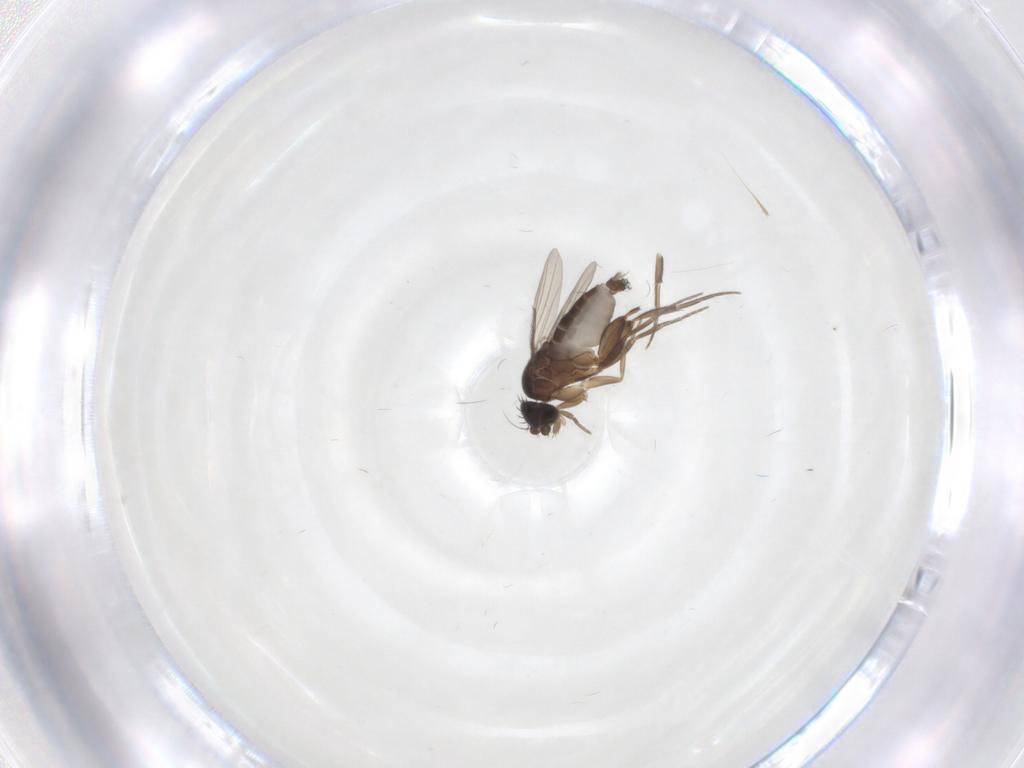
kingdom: Animalia
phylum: Arthropoda
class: Insecta
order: Diptera
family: Phoridae
